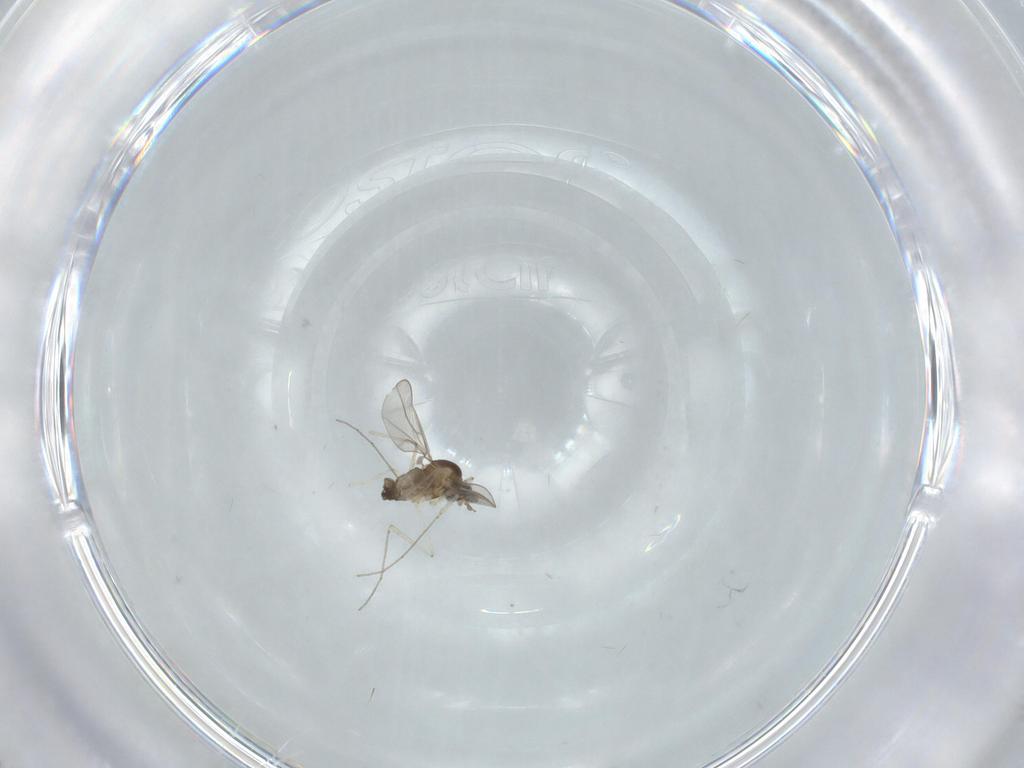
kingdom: Animalia
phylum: Arthropoda
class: Insecta
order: Diptera
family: Cecidomyiidae
